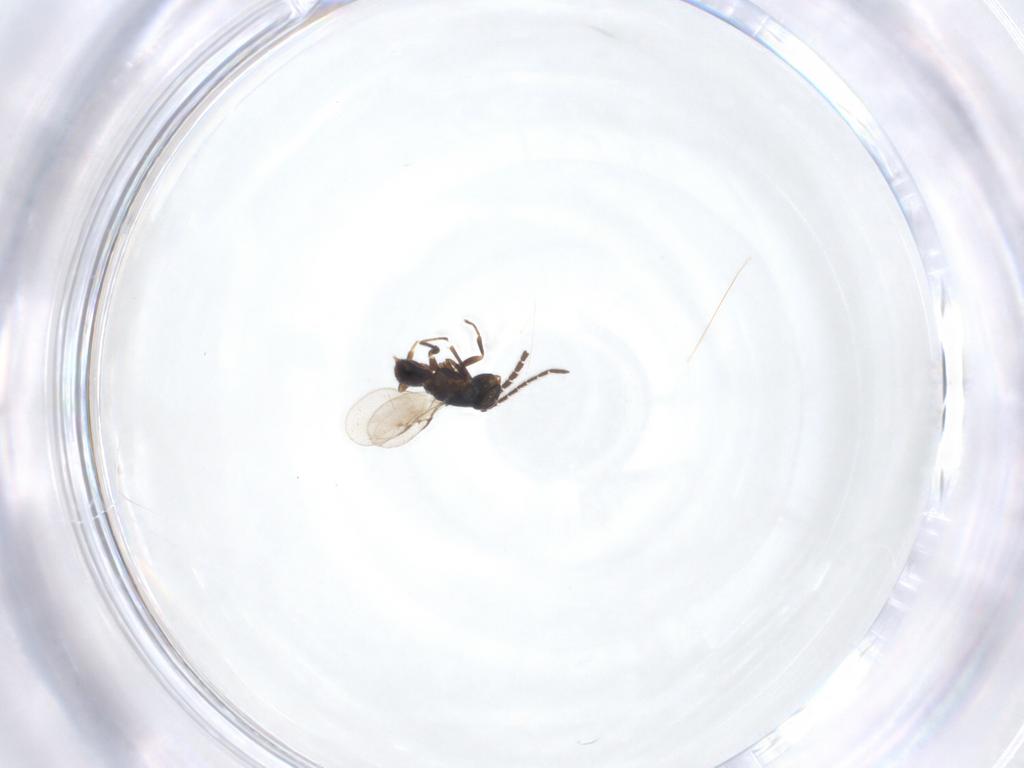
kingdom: Animalia
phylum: Arthropoda
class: Insecta
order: Hymenoptera
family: Encyrtidae
